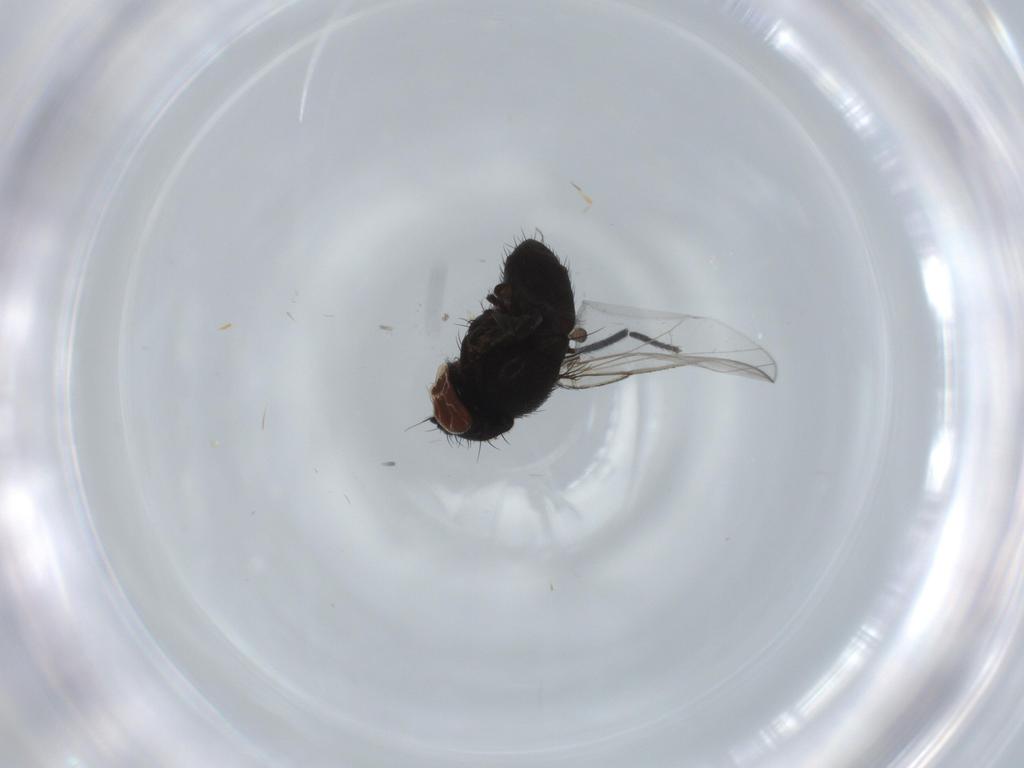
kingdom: Animalia
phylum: Arthropoda
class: Insecta
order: Diptera
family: Milichiidae
